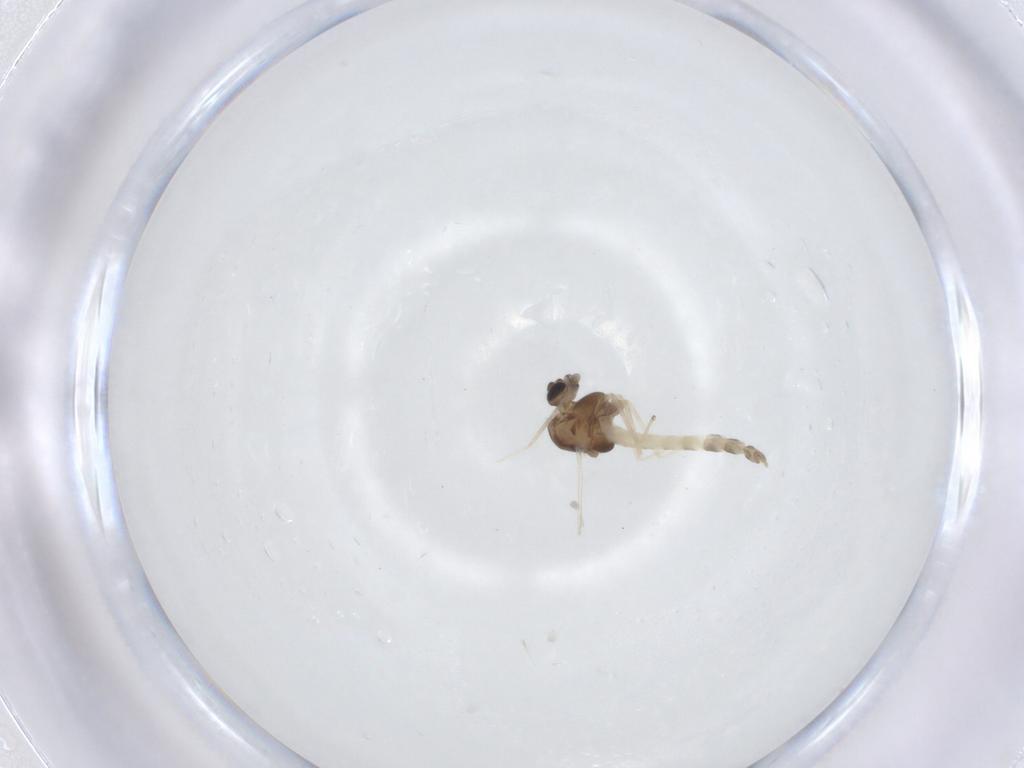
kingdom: Animalia
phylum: Arthropoda
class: Insecta
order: Diptera
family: Chironomidae
